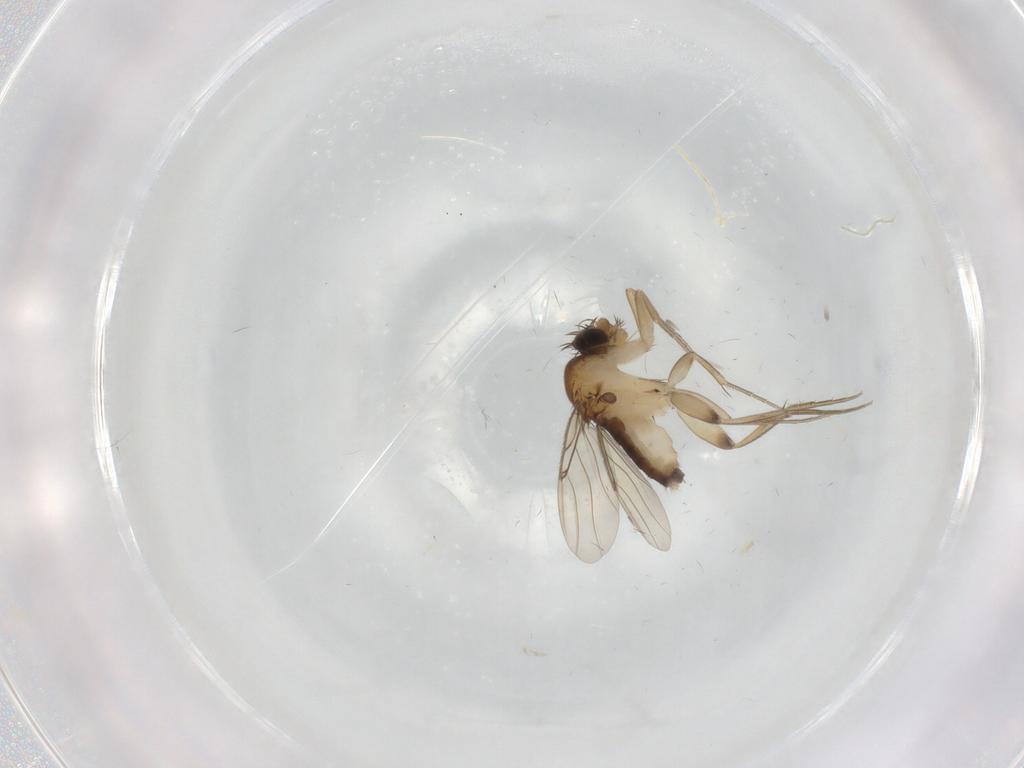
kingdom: Animalia
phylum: Arthropoda
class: Insecta
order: Diptera
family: Phoridae
